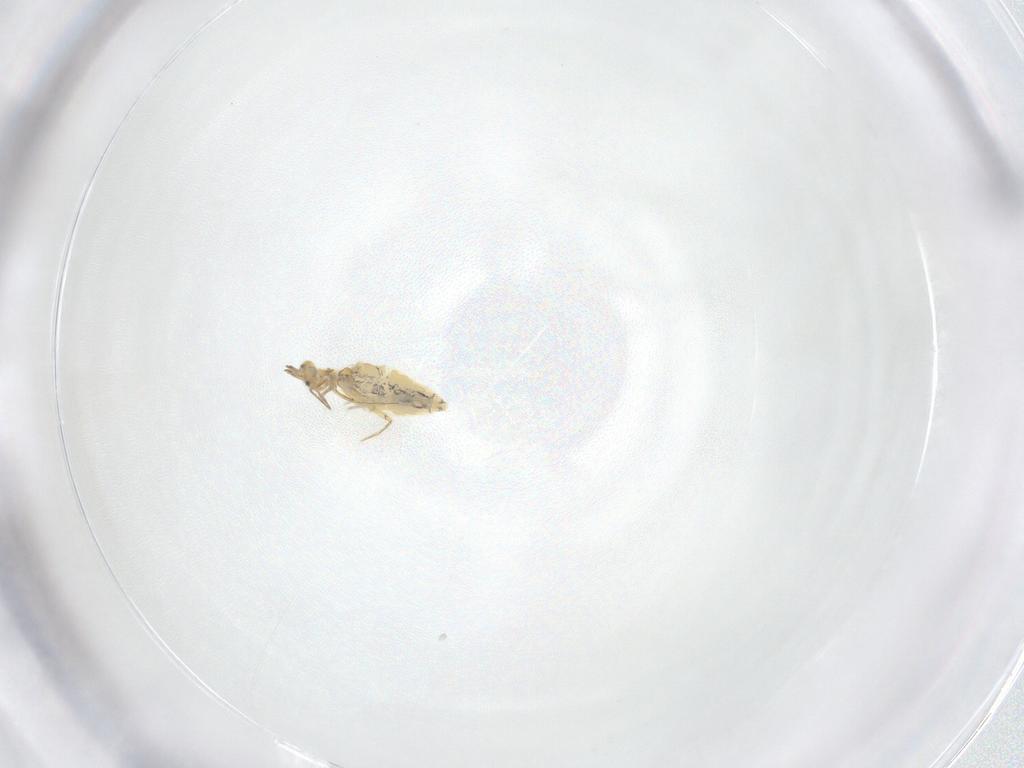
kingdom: Animalia
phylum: Arthropoda
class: Collembola
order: Entomobryomorpha
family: Entomobryidae
